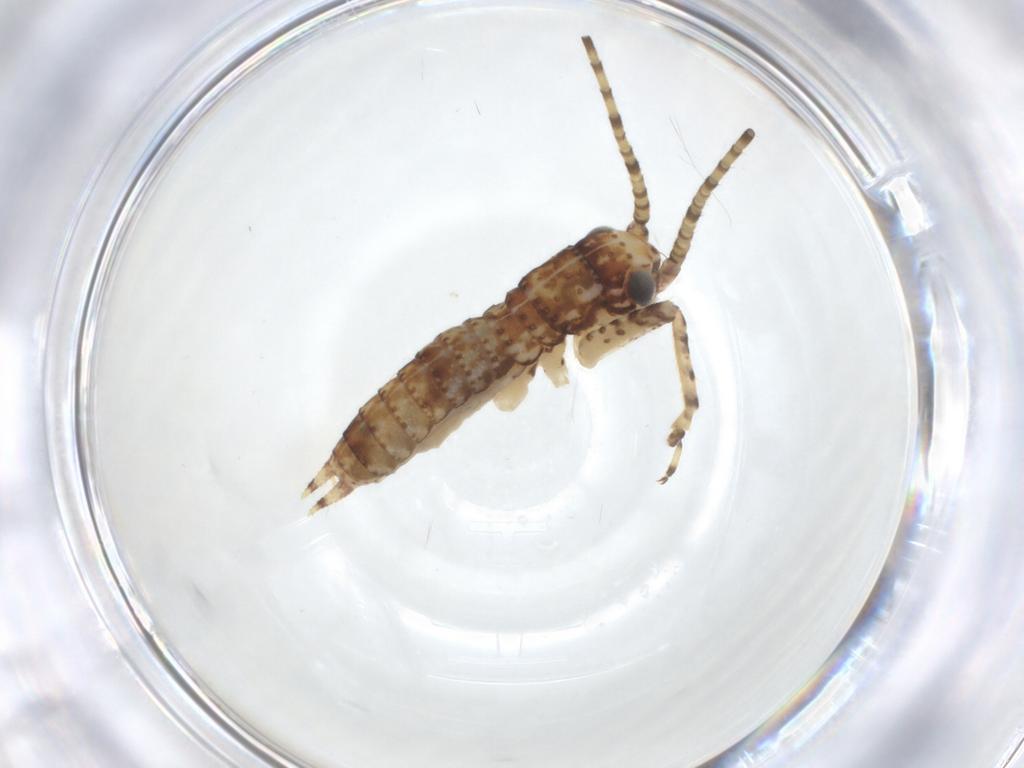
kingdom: Animalia
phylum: Arthropoda
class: Insecta
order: Orthoptera
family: Gryllidae
